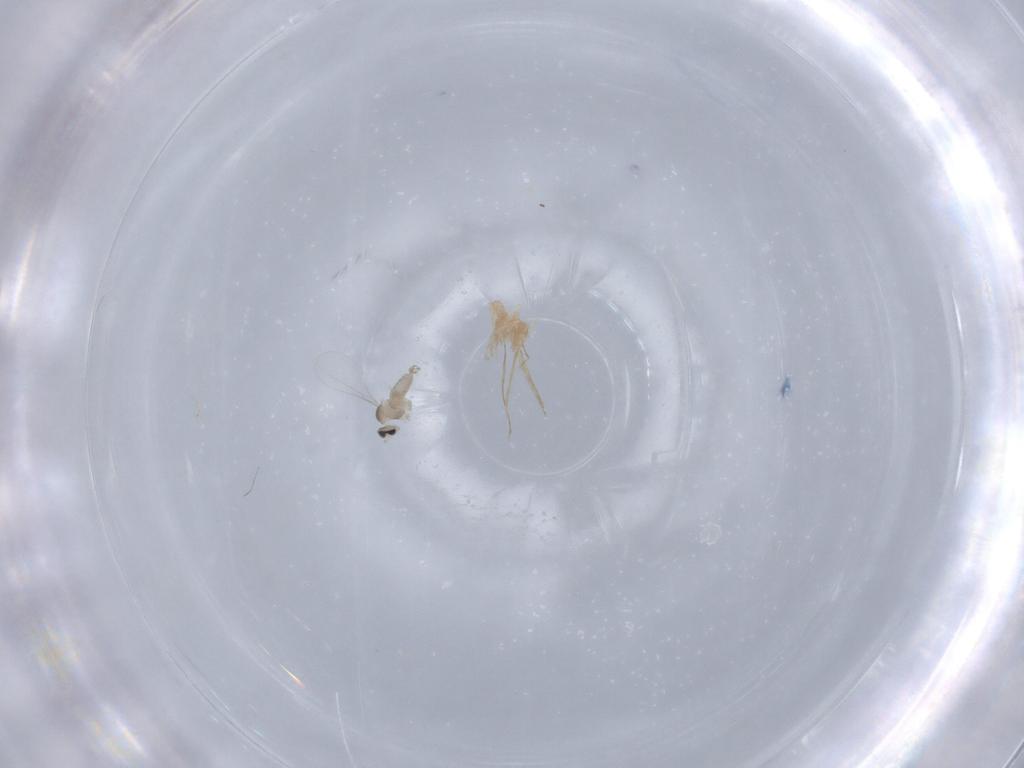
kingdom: Animalia
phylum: Arthropoda
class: Insecta
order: Diptera
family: Cecidomyiidae
